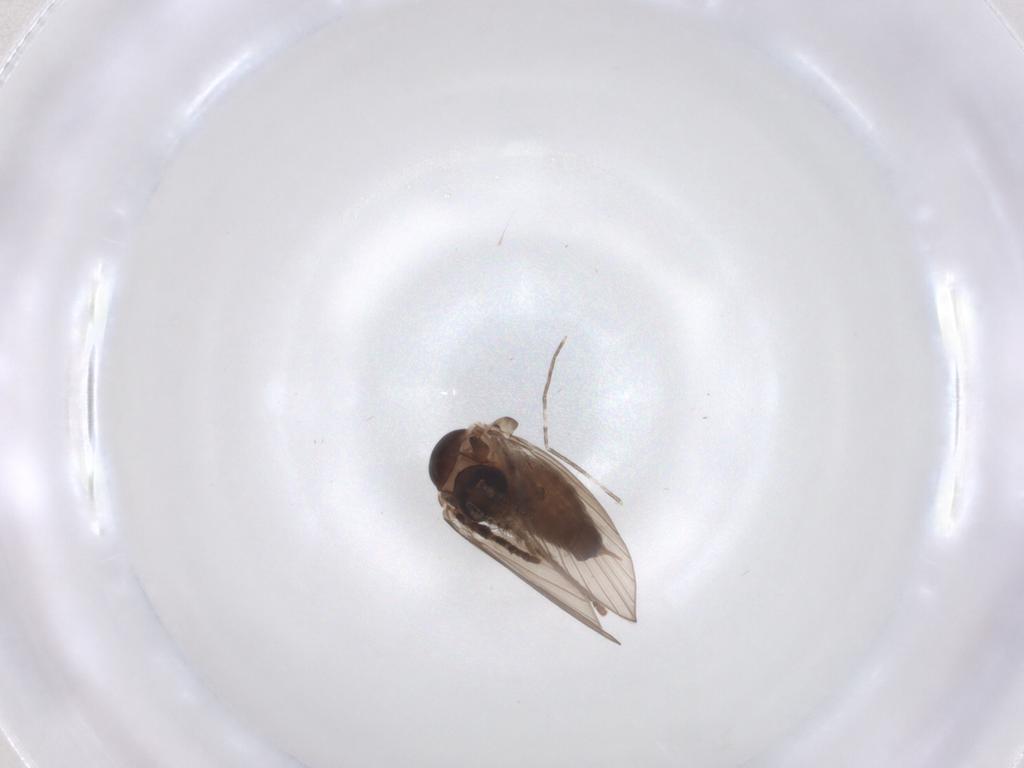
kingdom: Animalia
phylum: Arthropoda
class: Insecta
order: Diptera
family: Psychodidae
